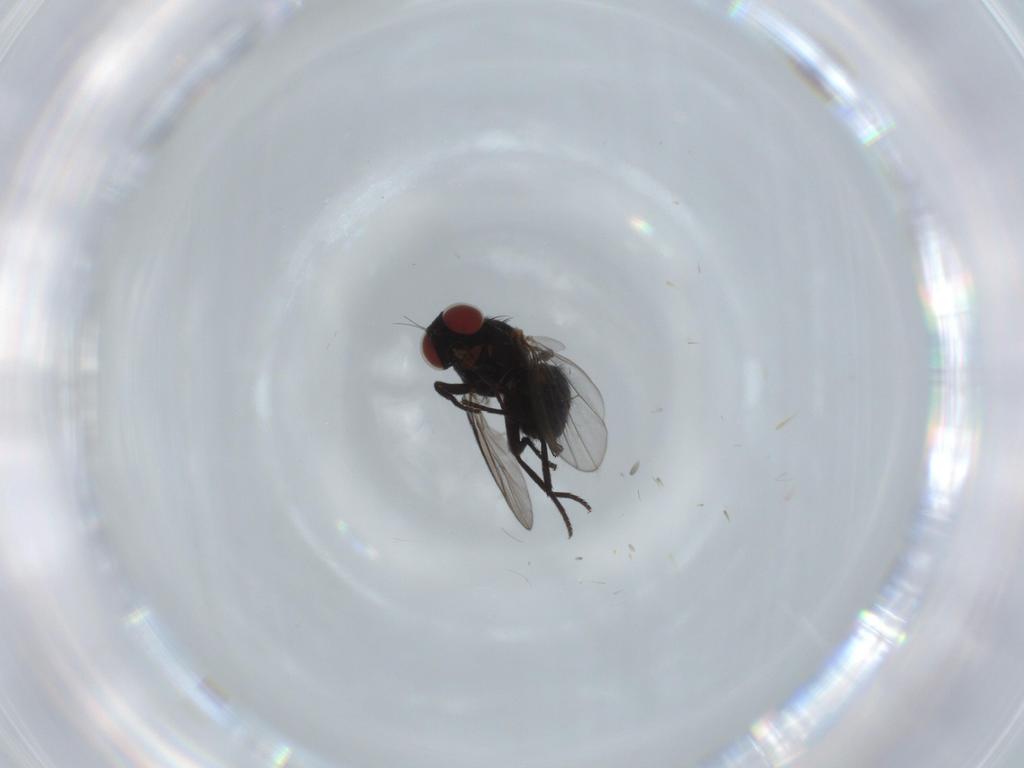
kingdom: Animalia
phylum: Arthropoda
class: Insecta
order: Diptera
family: Agromyzidae
